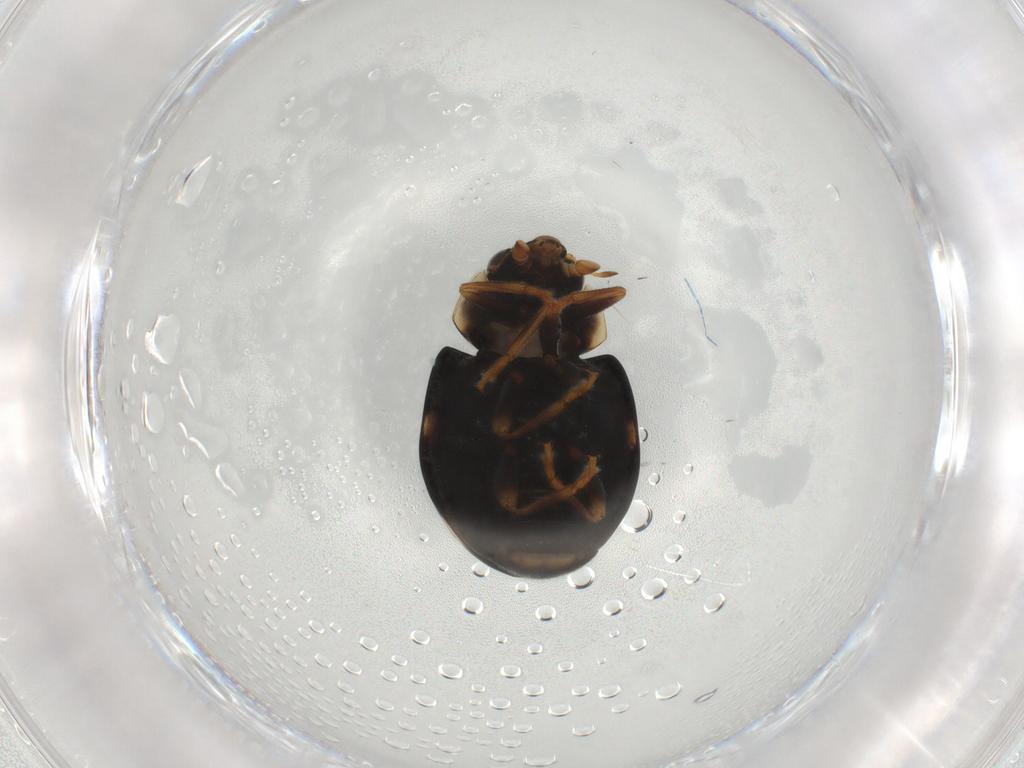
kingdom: Animalia
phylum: Arthropoda
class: Insecta
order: Coleoptera
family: Coccinellidae
